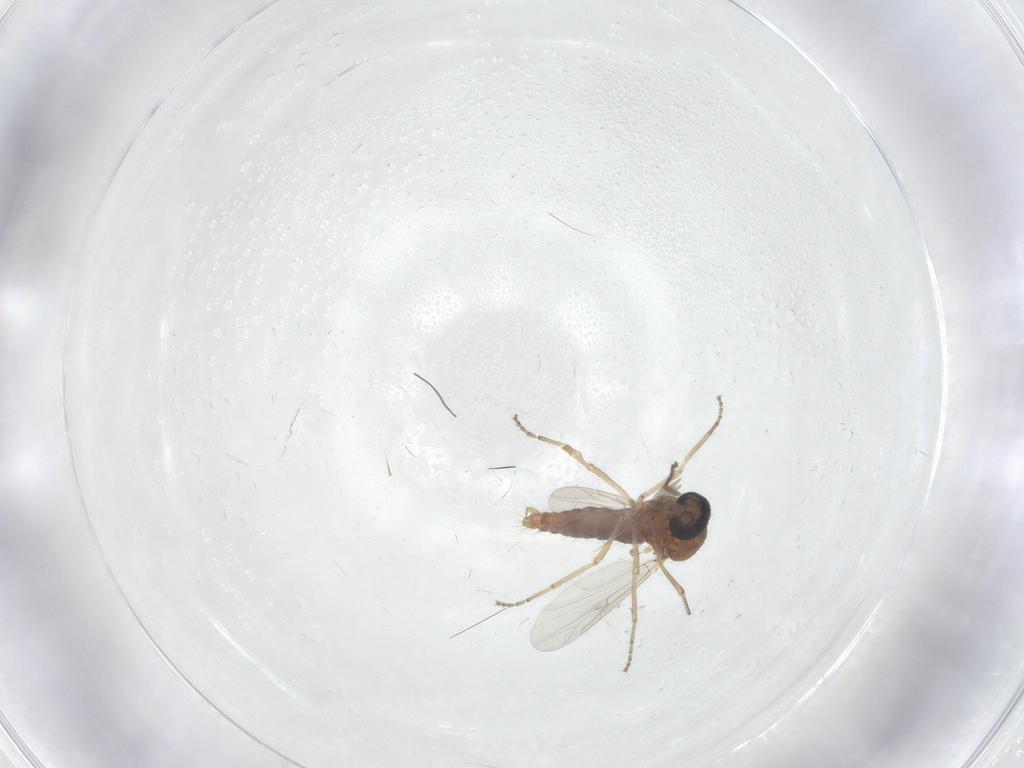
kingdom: Animalia
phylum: Arthropoda
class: Insecta
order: Diptera
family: Ceratopogonidae
